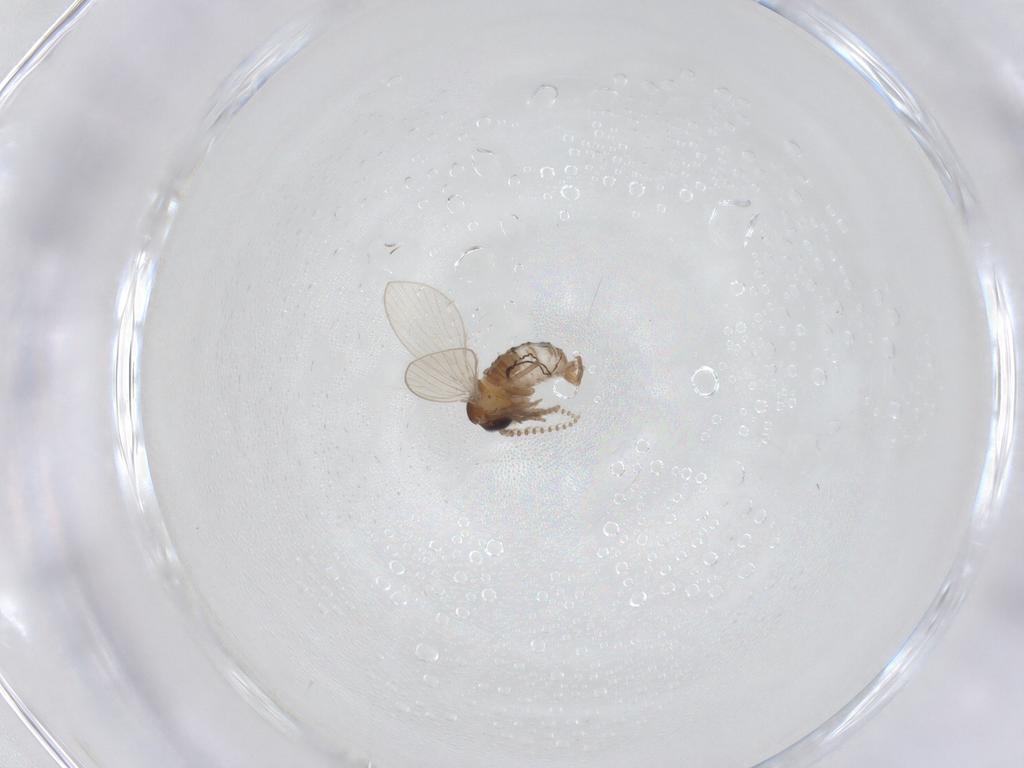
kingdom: Animalia
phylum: Arthropoda
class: Insecta
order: Diptera
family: Psychodidae
